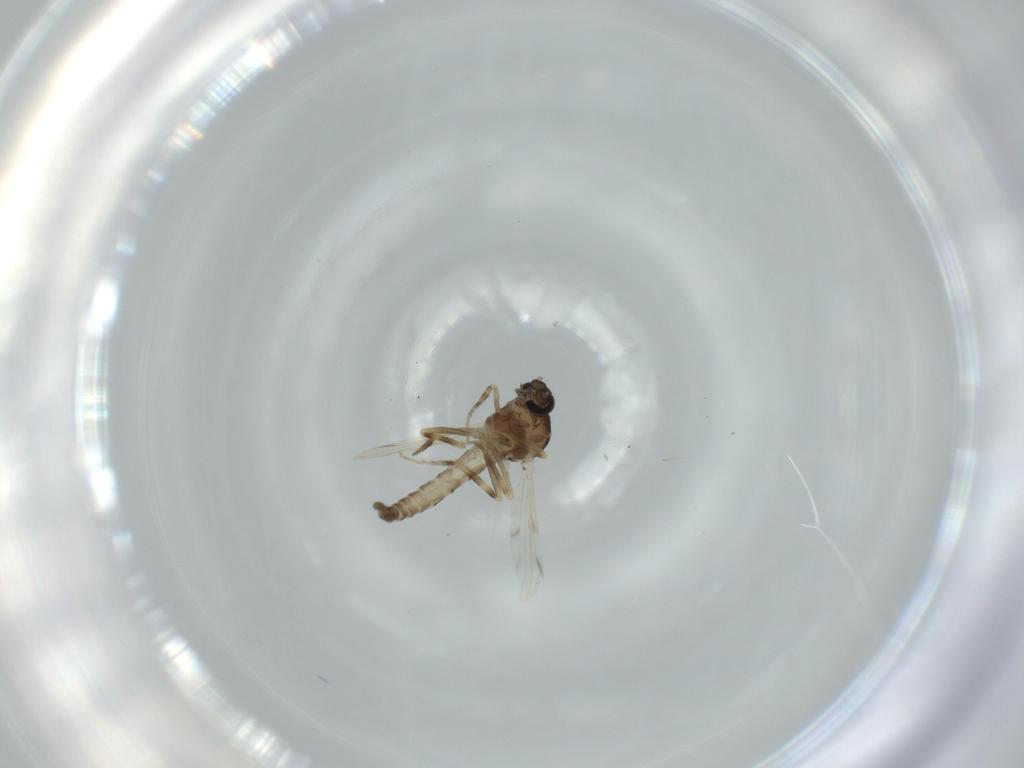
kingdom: Animalia
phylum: Arthropoda
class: Insecta
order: Diptera
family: Ceratopogonidae
